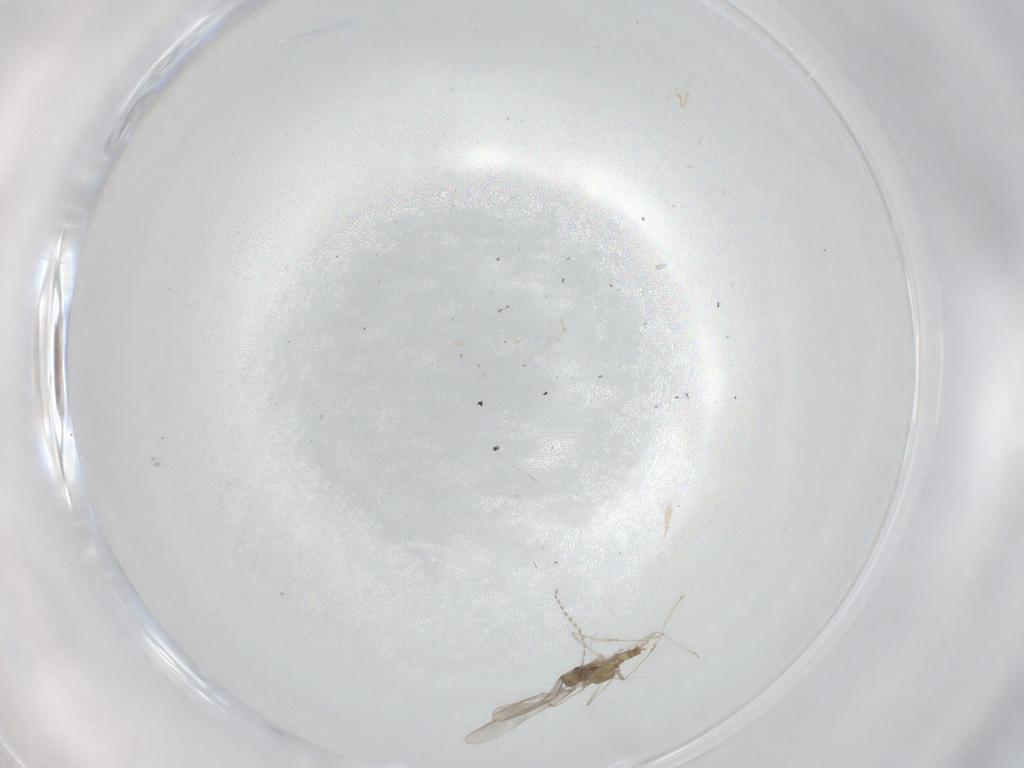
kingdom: Animalia
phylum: Arthropoda
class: Insecta
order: Diptera
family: Cecidomyiidae
